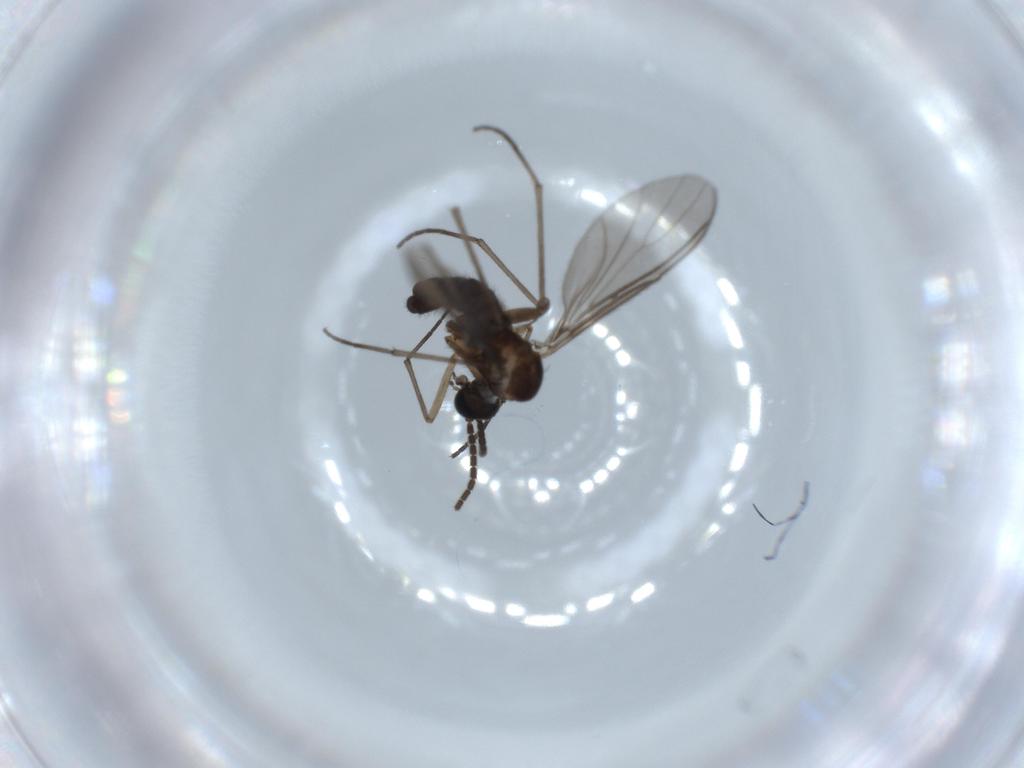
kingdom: Animalia
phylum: Arthropoda
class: Insecta
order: Diptera
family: Sciaridae
